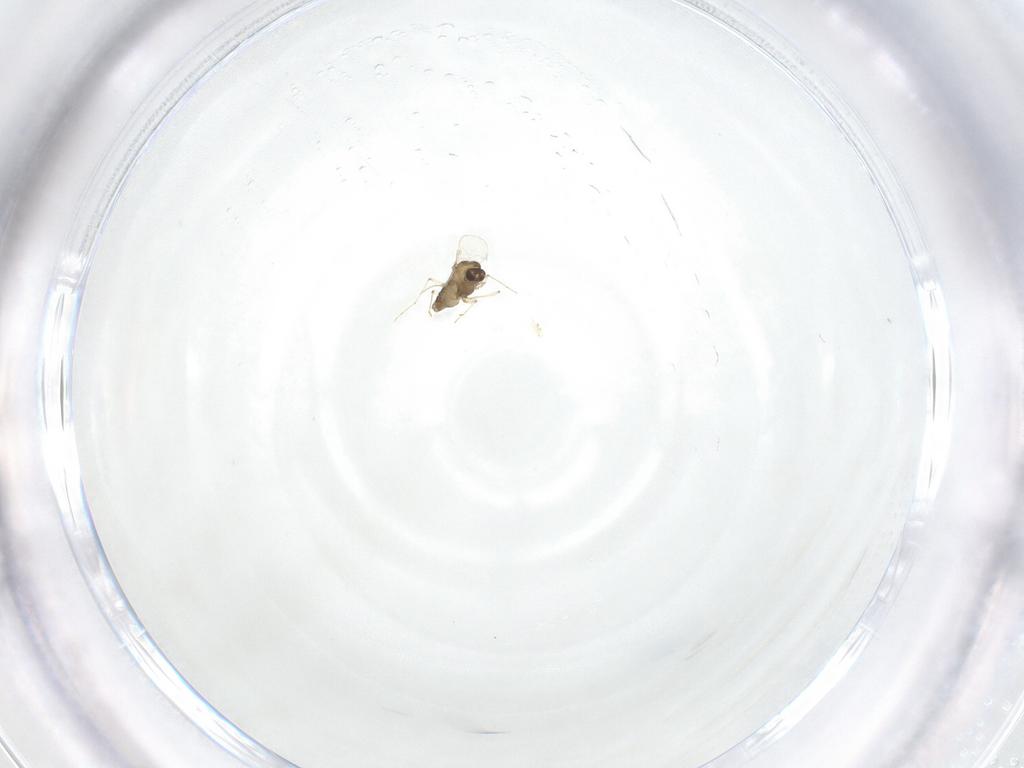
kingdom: Animalia
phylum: Arthropoda
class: Insecta
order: Diptera
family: Chironomidae
